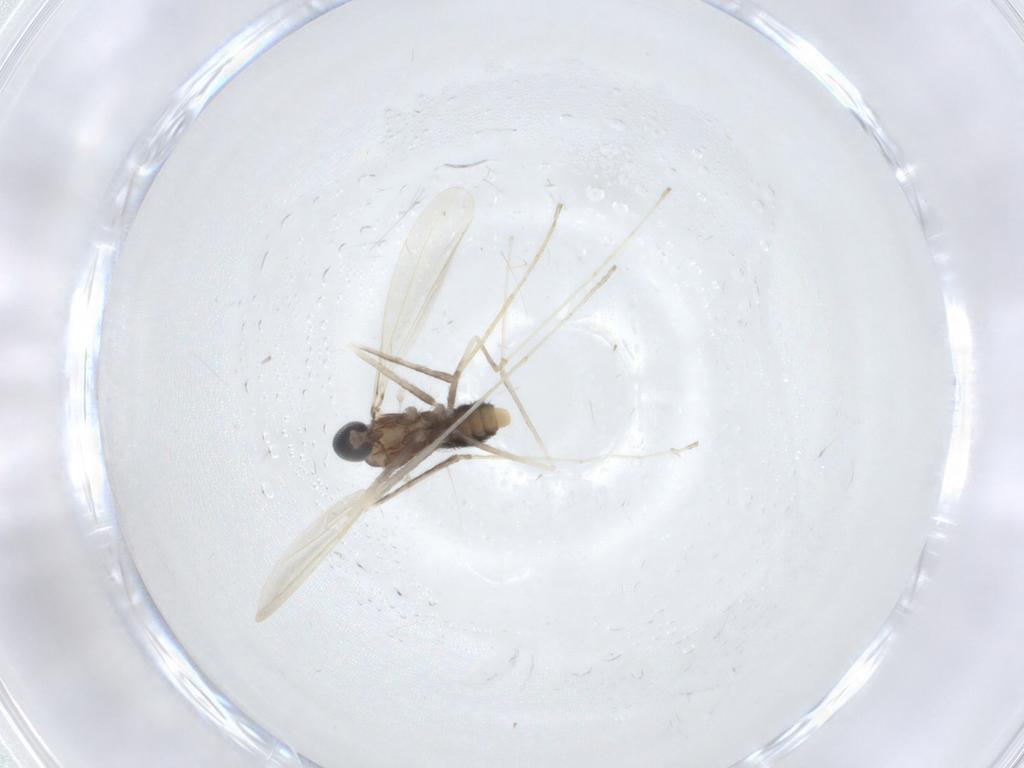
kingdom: Animalia
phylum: Arthropoda
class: Insecta
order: Diptera
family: Cecidomyiidae
